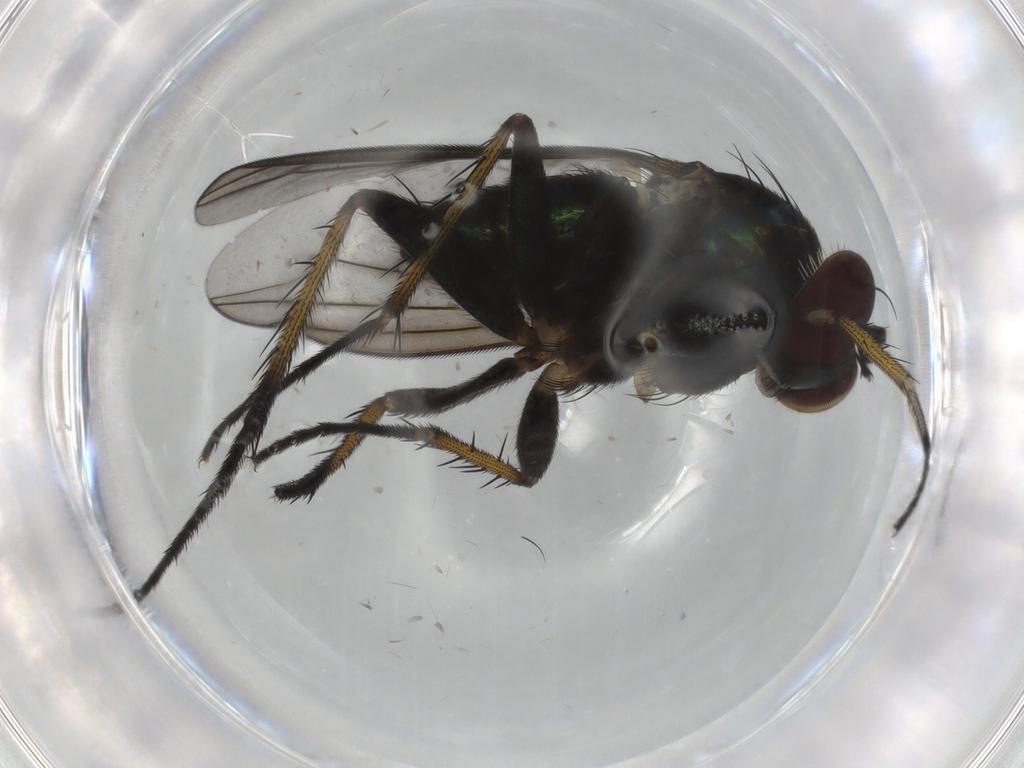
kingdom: Animalia
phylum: Arthropoda
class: Insecta
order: Diptera
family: Dolichopodidae
